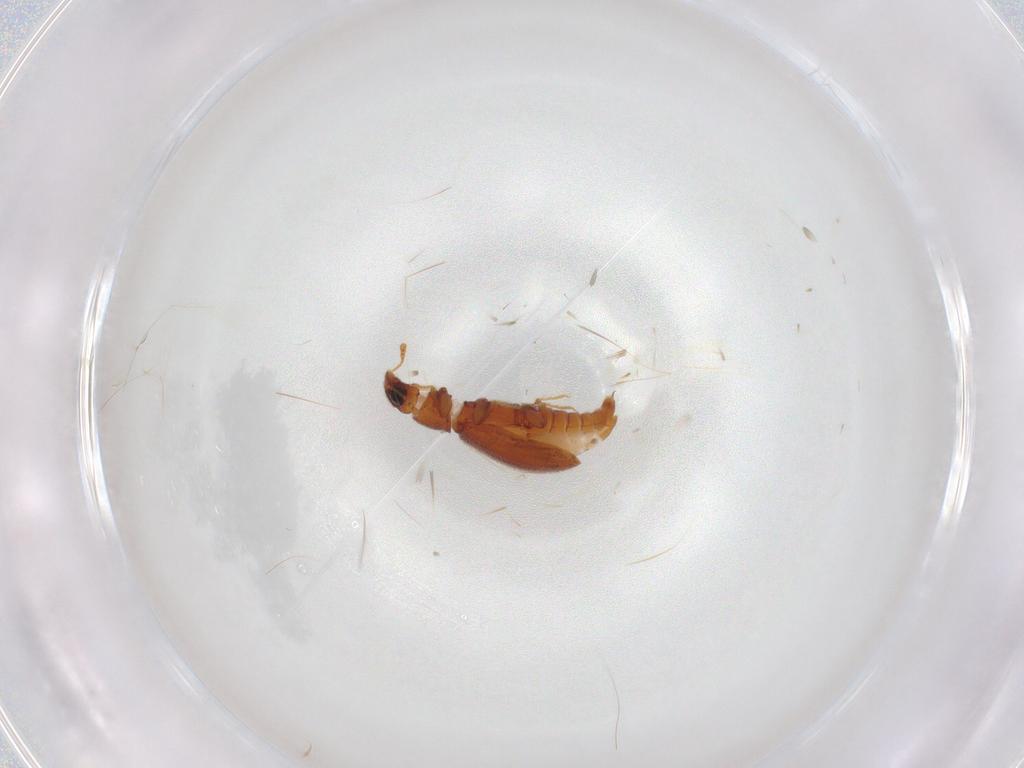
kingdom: Animalia
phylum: Arthropoda
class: Insecta
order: Coleoptera
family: Latridiidae
